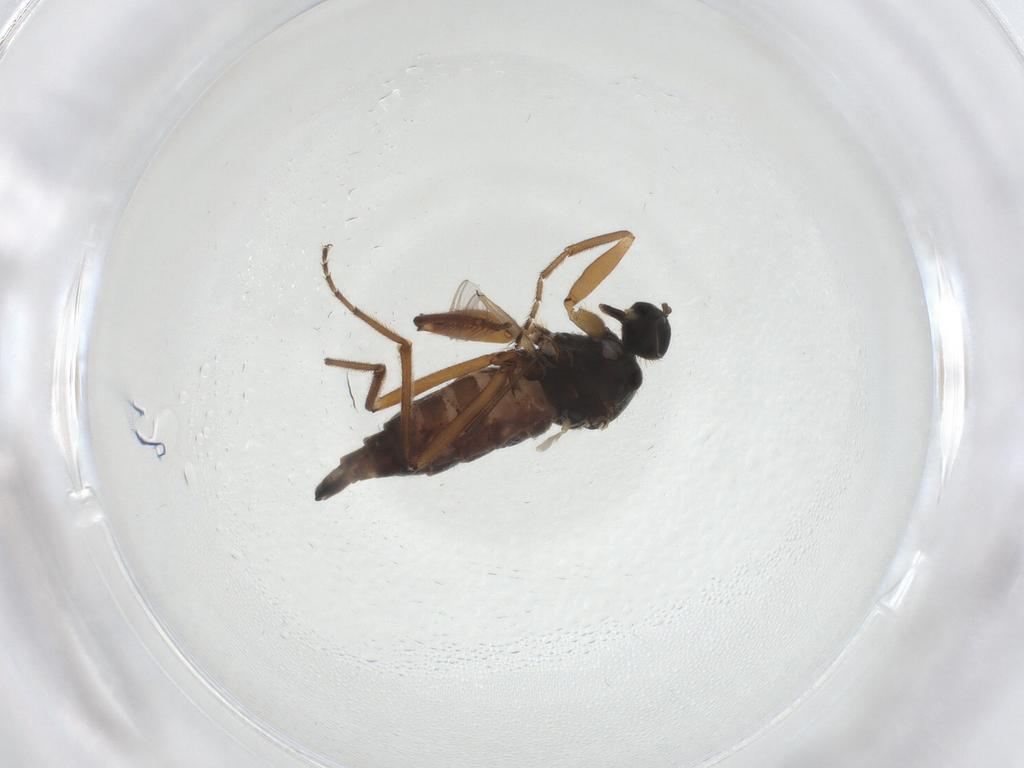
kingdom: Animalia
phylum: Arthropoda
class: Insecta
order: Diptera
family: Hybotidae
